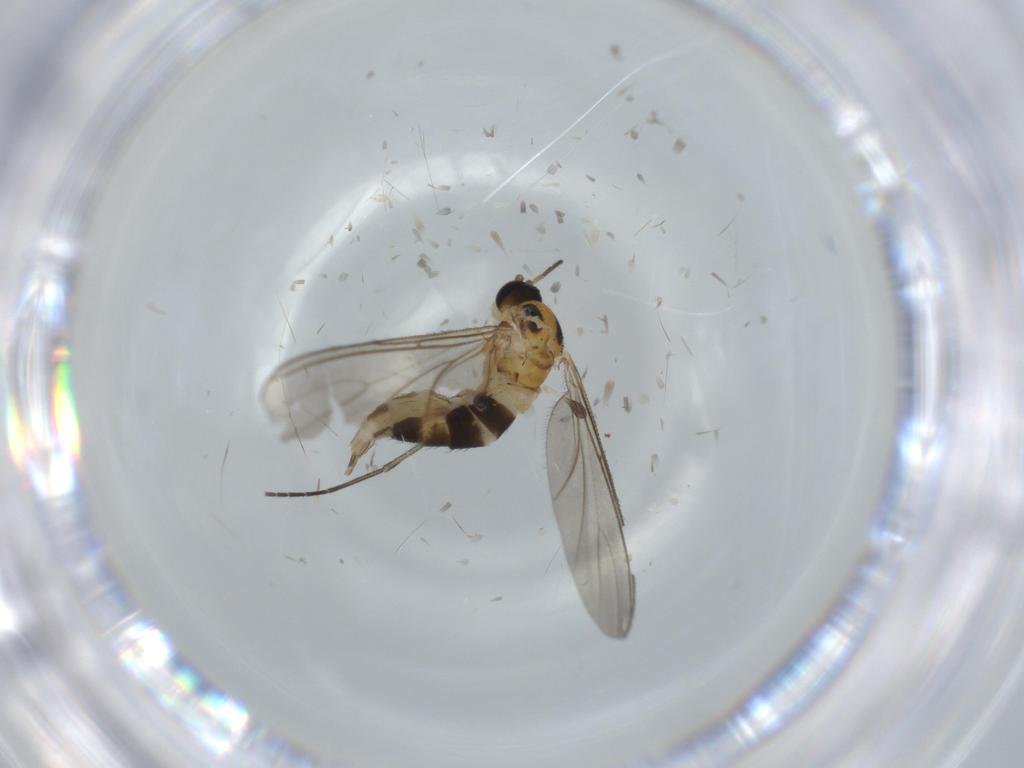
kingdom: Animalia
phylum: Arthropoda
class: Insecta
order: Diptera
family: Sciaridae
